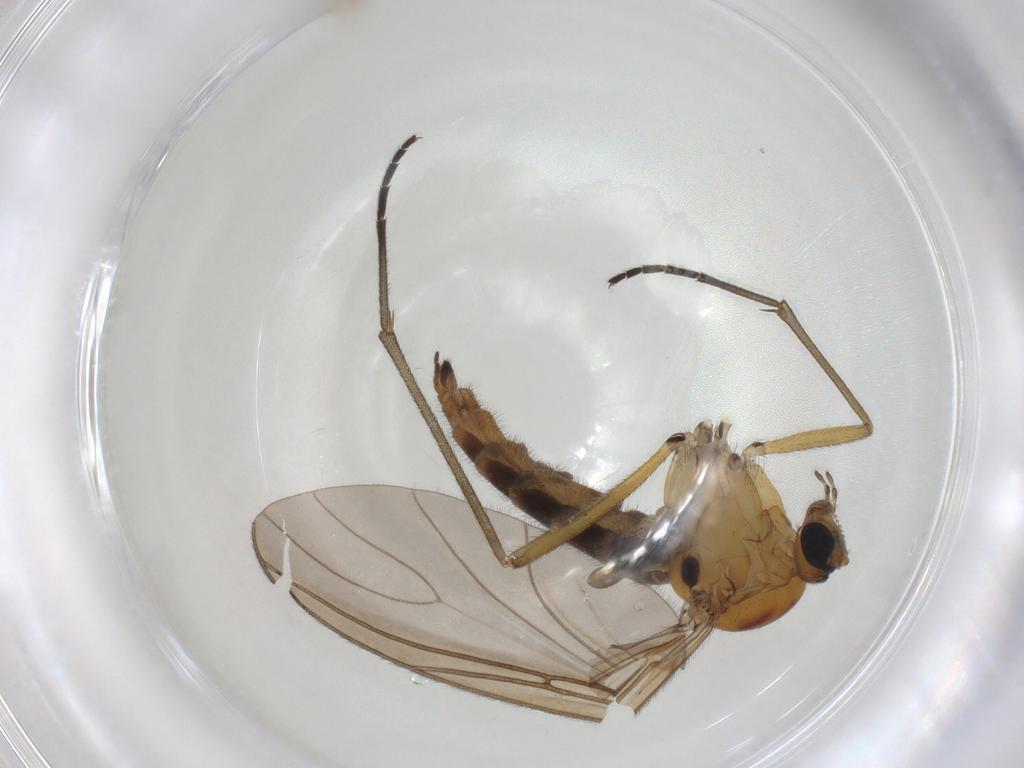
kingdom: Animalia
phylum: Arthropoda
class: Insecta
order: Diptera
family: Sciaridae
